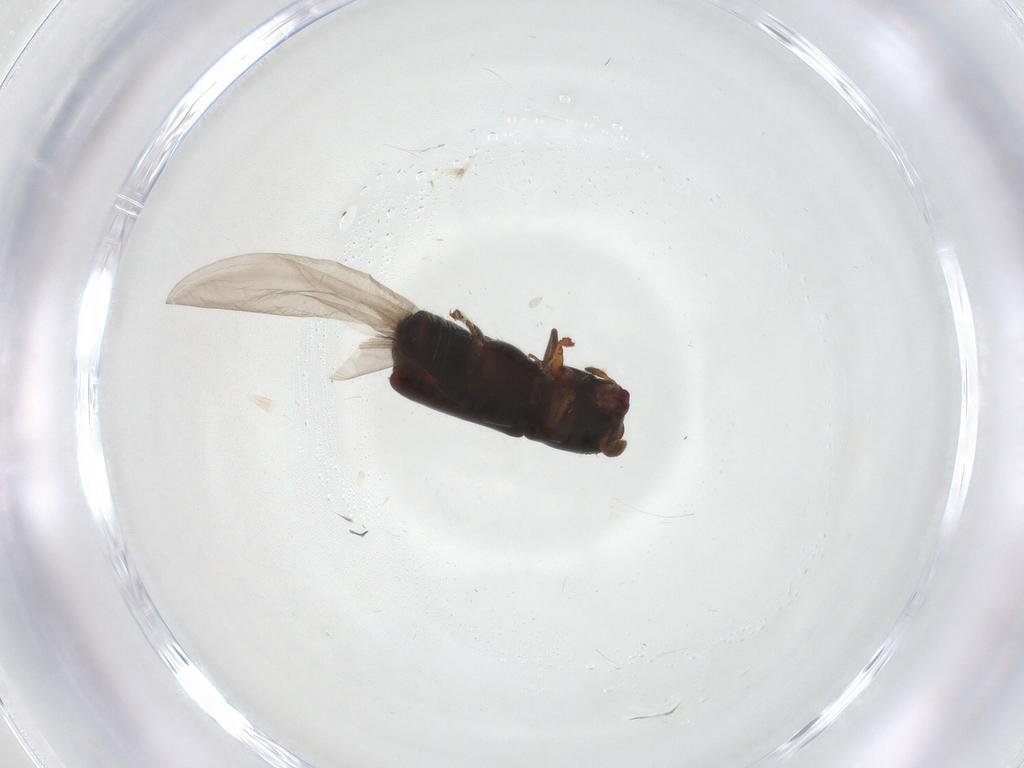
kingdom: Animalia
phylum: Arthropoda
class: Insecta
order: Coleoptera
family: Curculionidae
